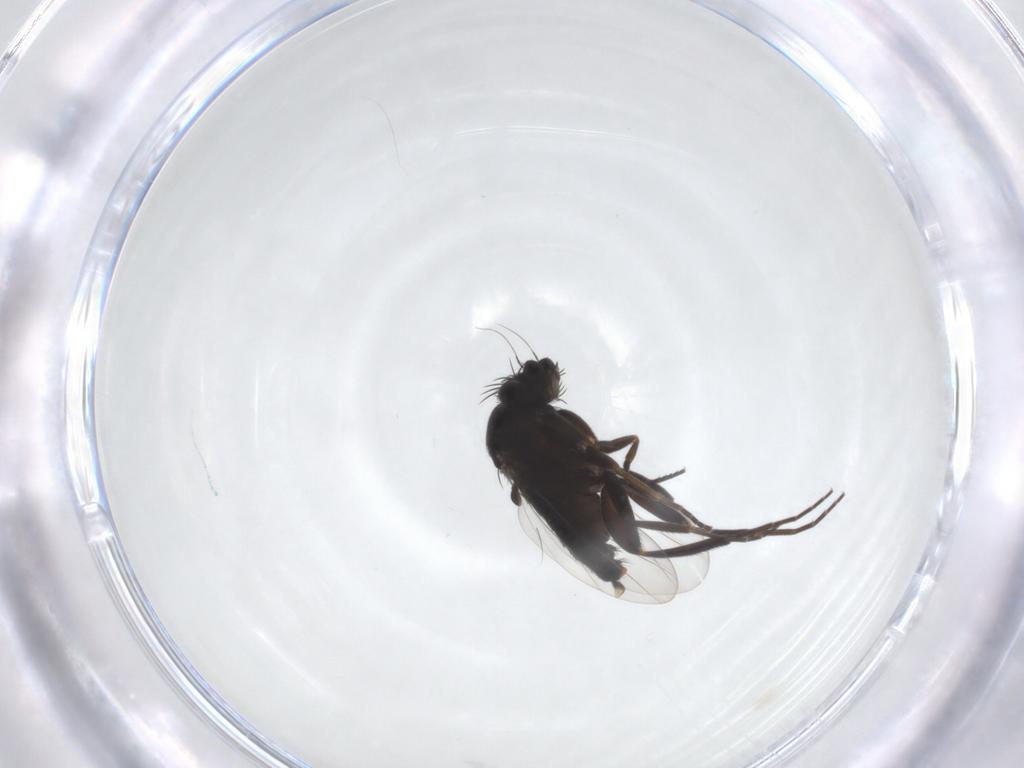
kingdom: Animalia
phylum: Arthropoda
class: Insecta
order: Diptera
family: Phoridae
